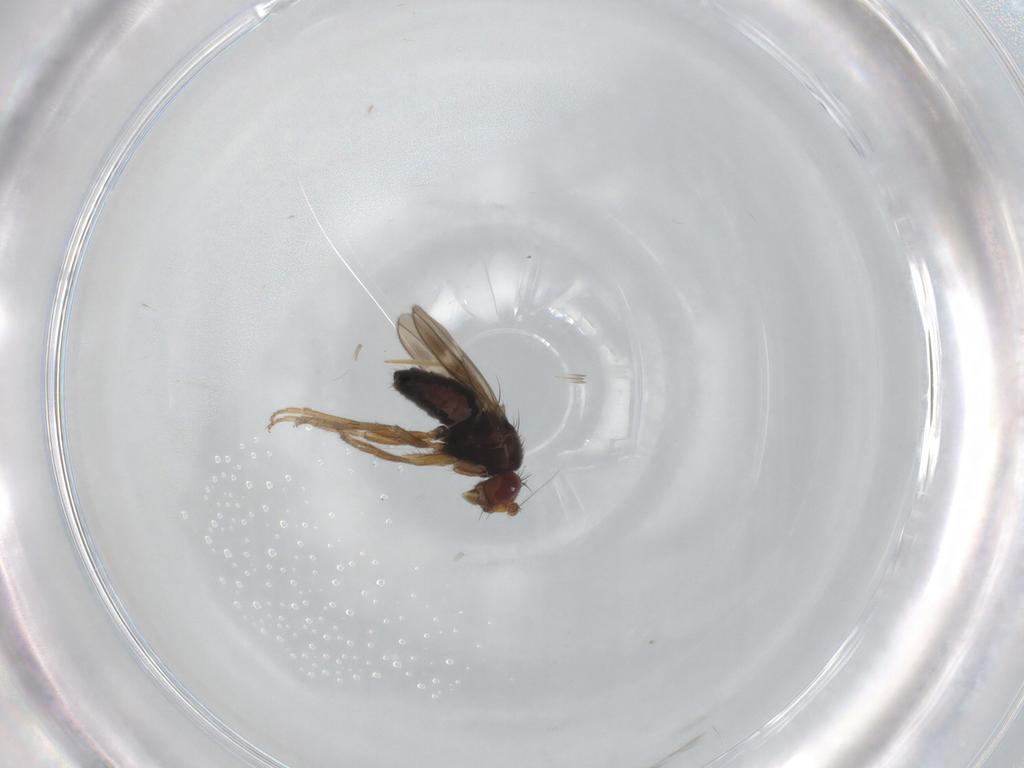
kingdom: Animalia
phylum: Arthropoda
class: Insecta
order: Diptera
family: Sphaeroceridae
